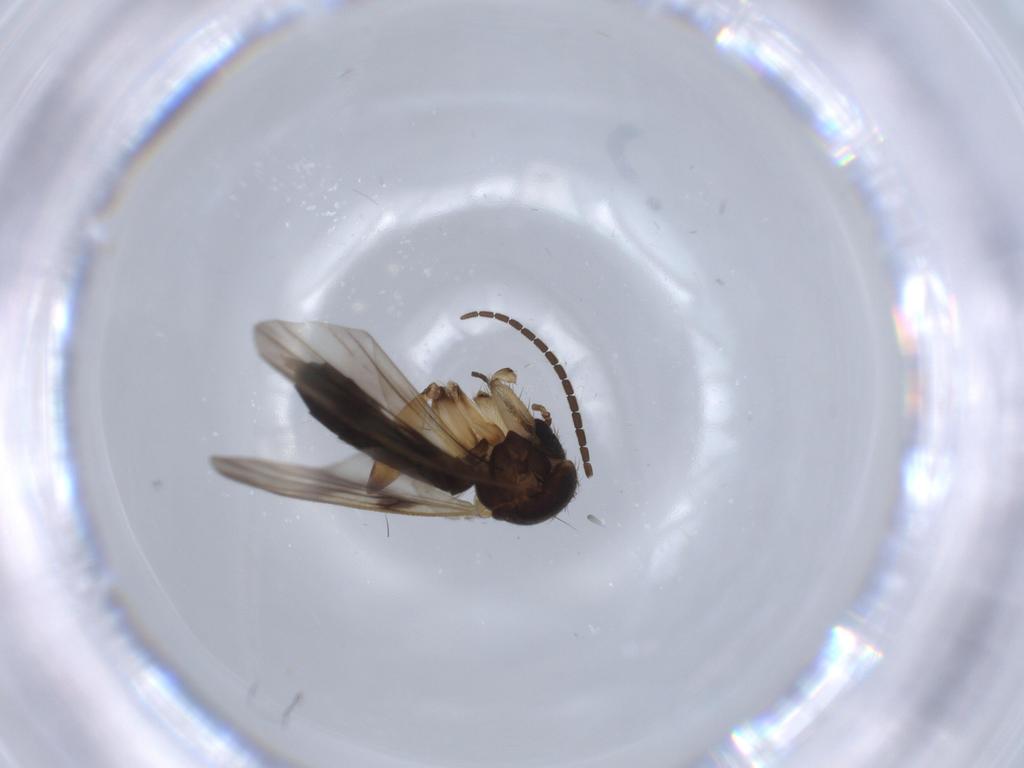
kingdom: Animalia
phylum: Arthropoda
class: Insecta
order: Diptera
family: Mycetophilidae
